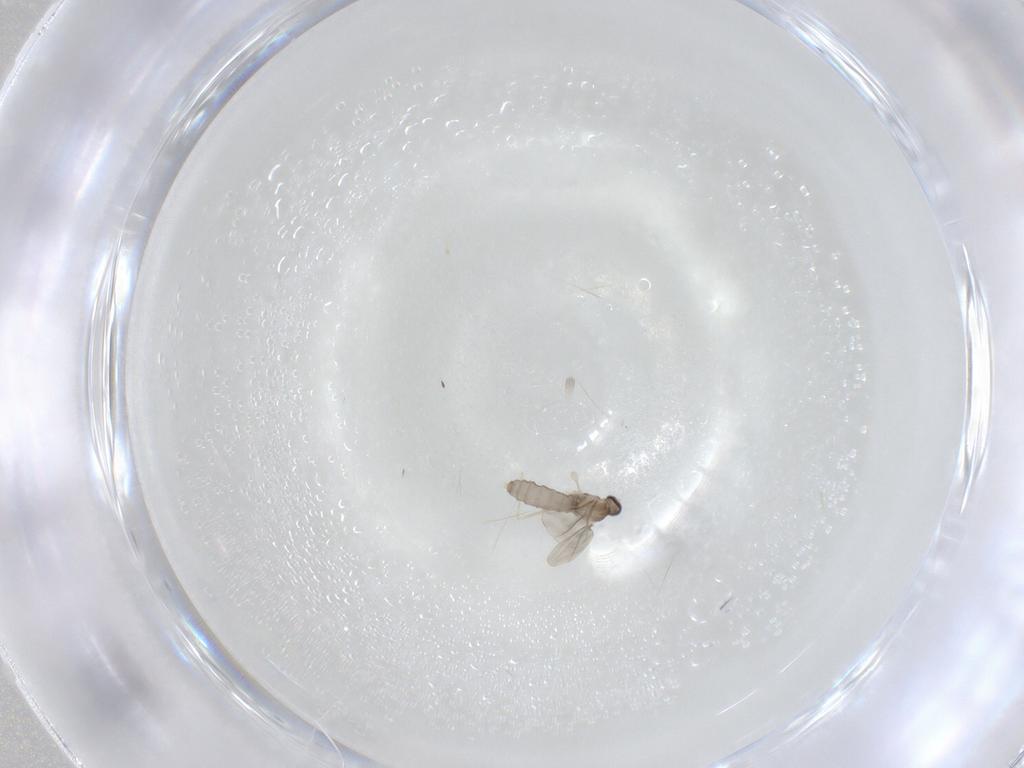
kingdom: Animalia
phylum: Arthropoda
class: Insecta
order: Diptera
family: Cecidomyiidae
